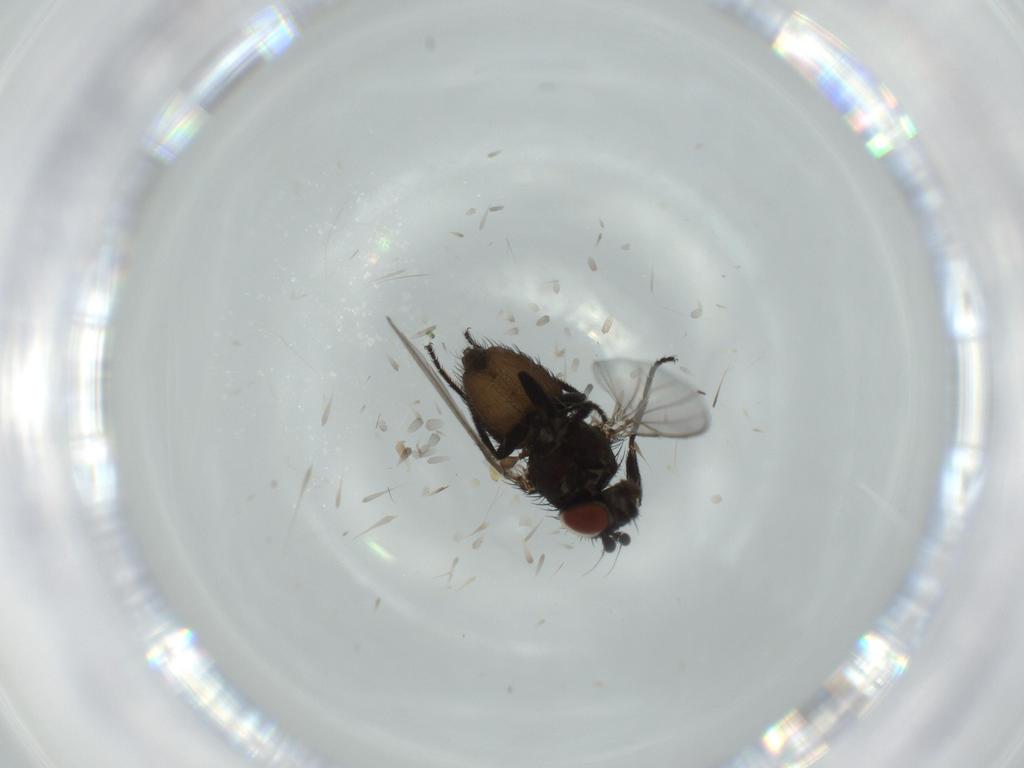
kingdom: Animalia
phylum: Arthropoda
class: Insecta
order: Diptera
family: Milichiidae
